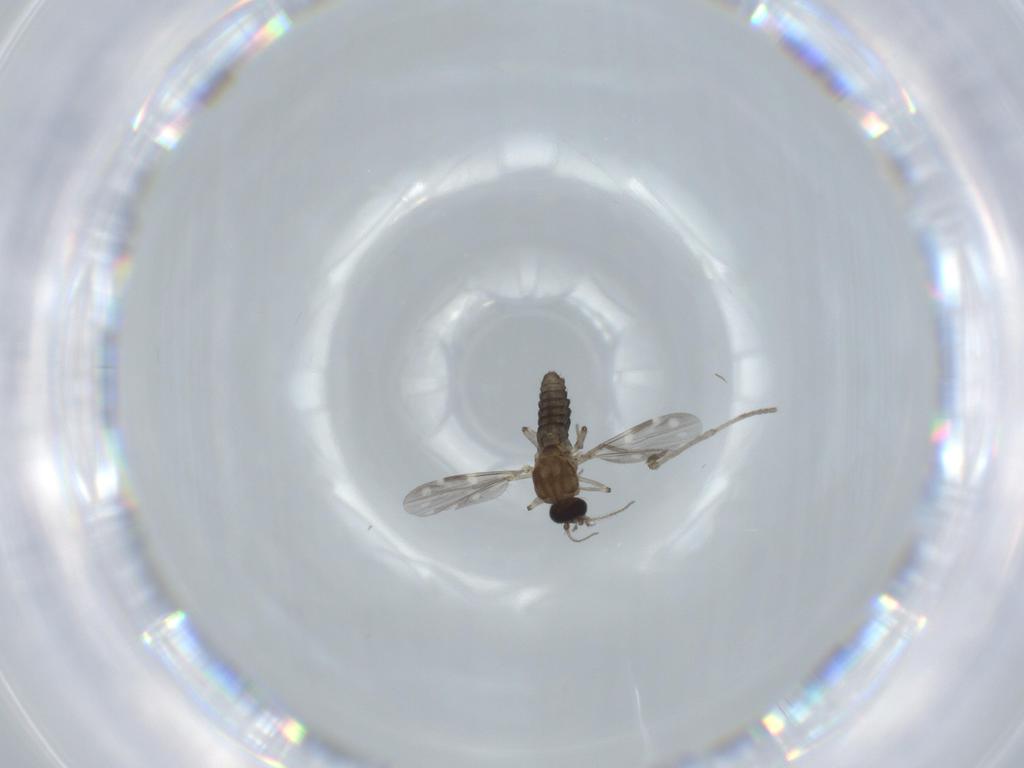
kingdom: Animalia
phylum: Arthropoda
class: Insecta
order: Diptera
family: Ceratopogonidae
